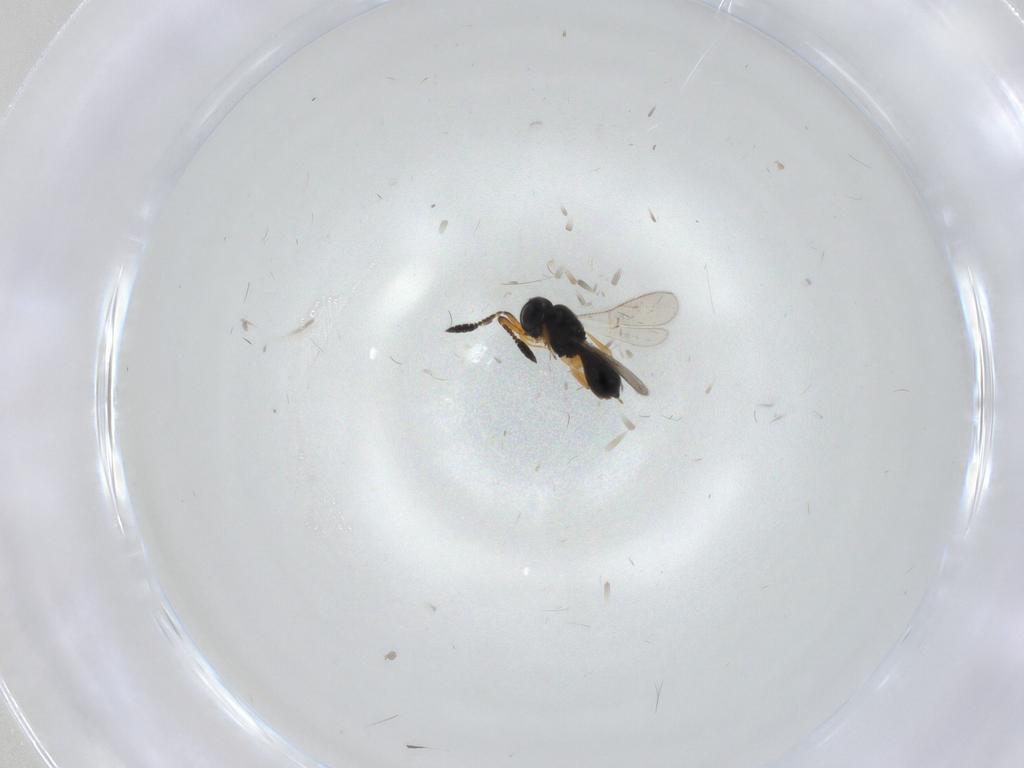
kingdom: Animalia
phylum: Arthropoda
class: Insecta
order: Hymenoptera
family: Scelionidae
